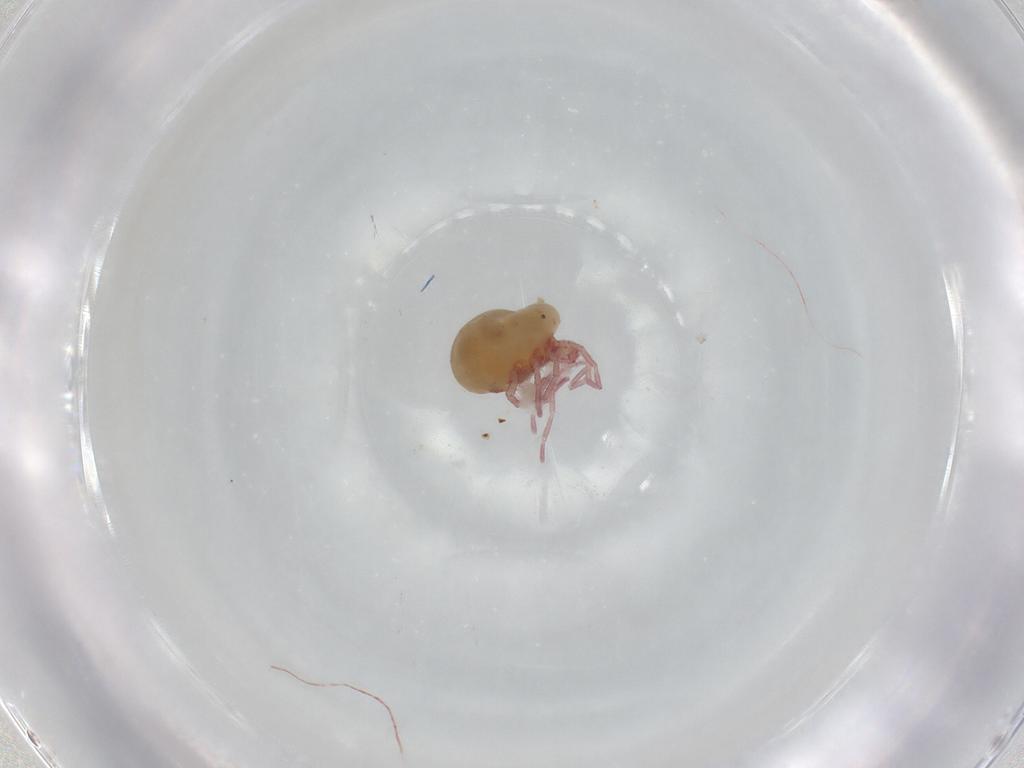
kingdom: Animalia
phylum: Arthropoda
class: Arachnida
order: Trombidiformes
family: Pionidae
